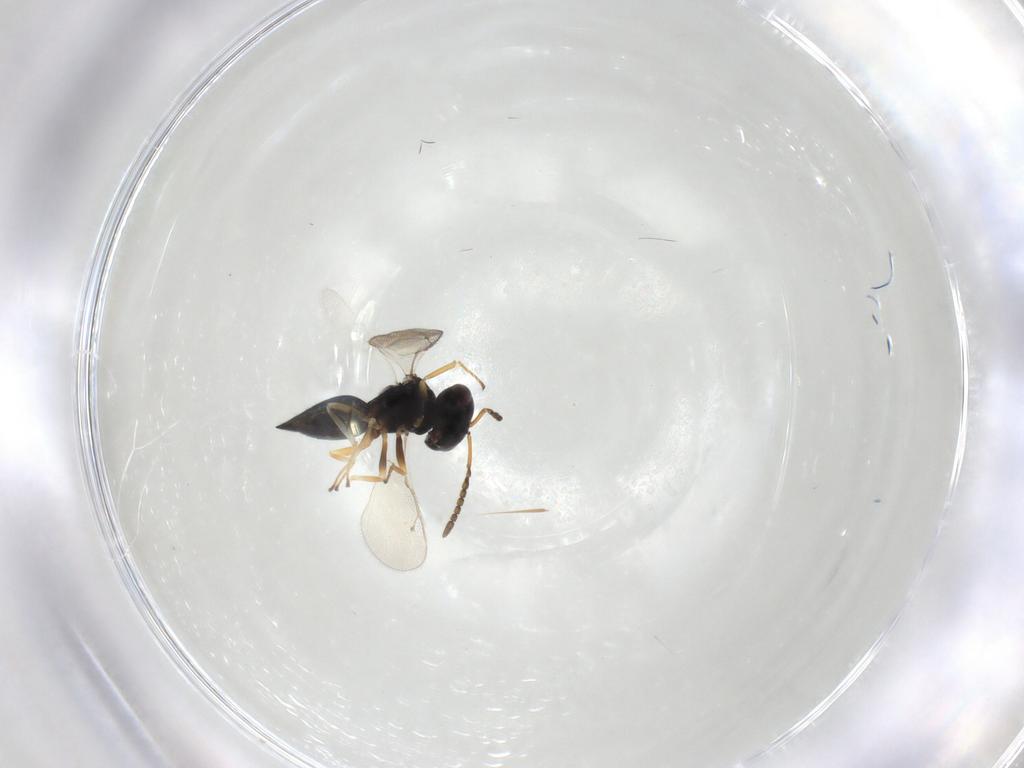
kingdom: Animalia
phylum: Arthropoda
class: Insecta
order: Hymenoptera
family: Pteromalidae
